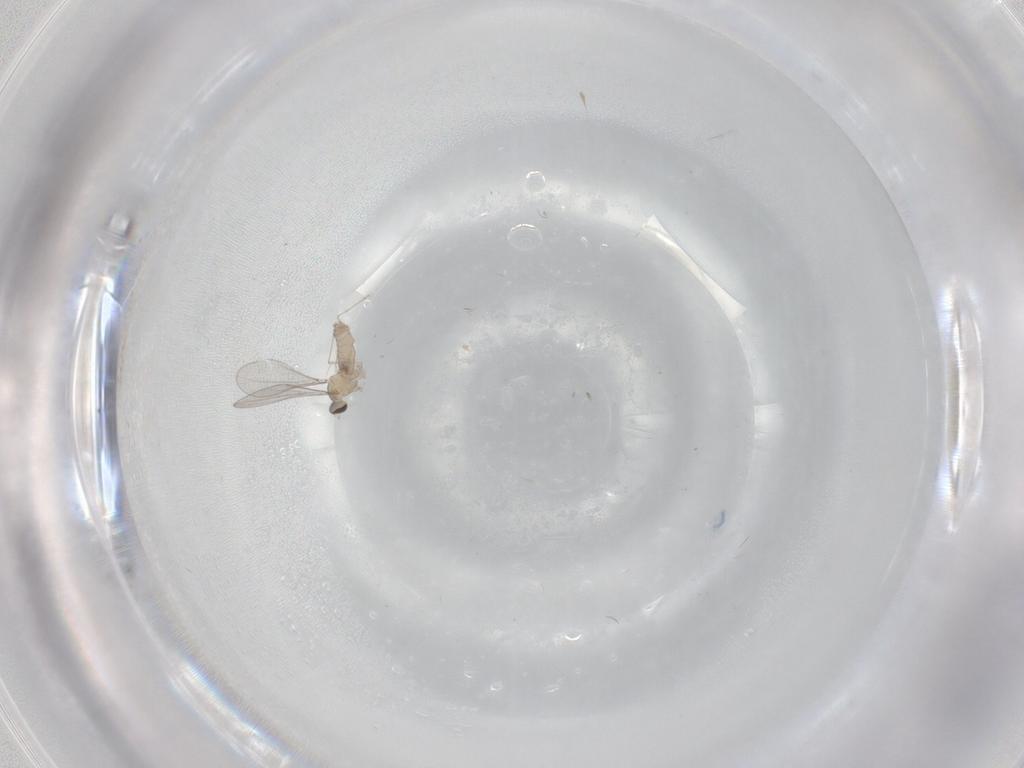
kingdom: Animalia
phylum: Arthropoda
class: Insecta
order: Diptera
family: Cecidomyiidae
